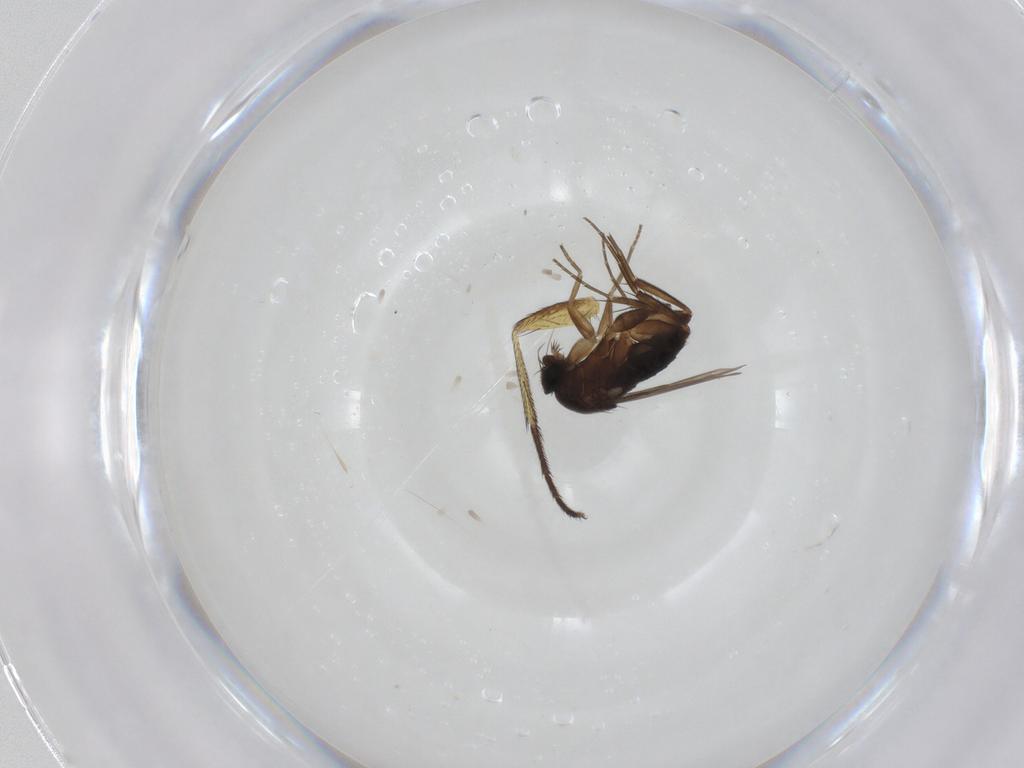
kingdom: Animalia
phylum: Arthropoda
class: Insecta
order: Diptera
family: Phoridae
